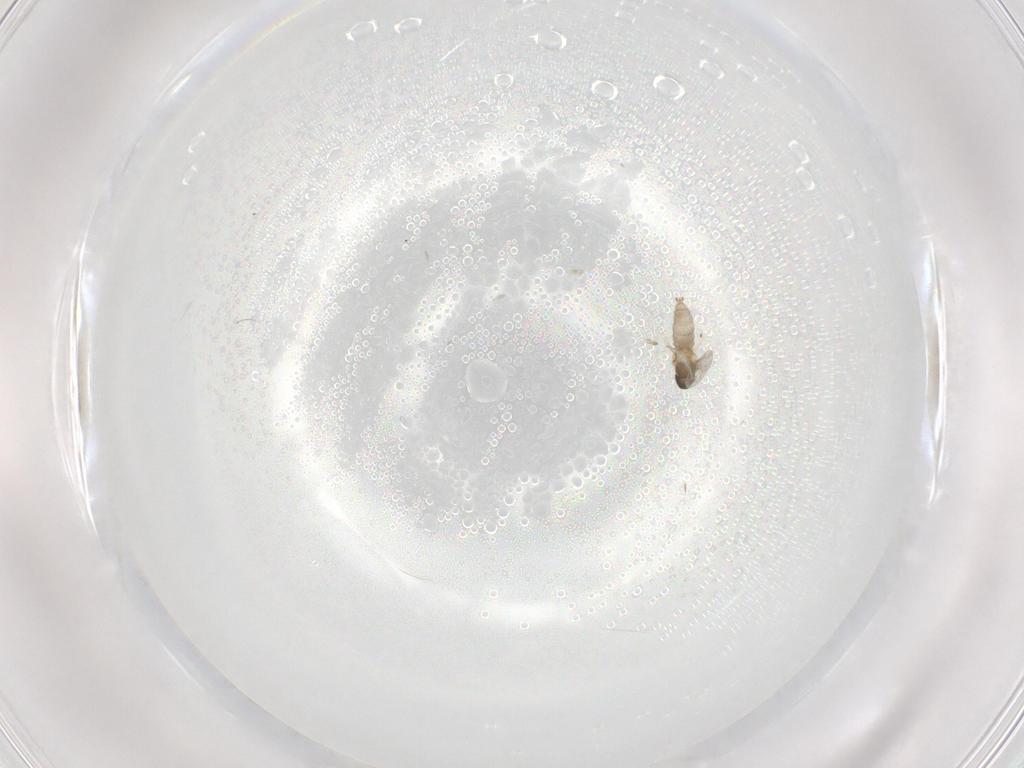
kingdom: Animalia
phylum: Arthropoda
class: Insecta
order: Diptera
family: Cecidomyiidae
